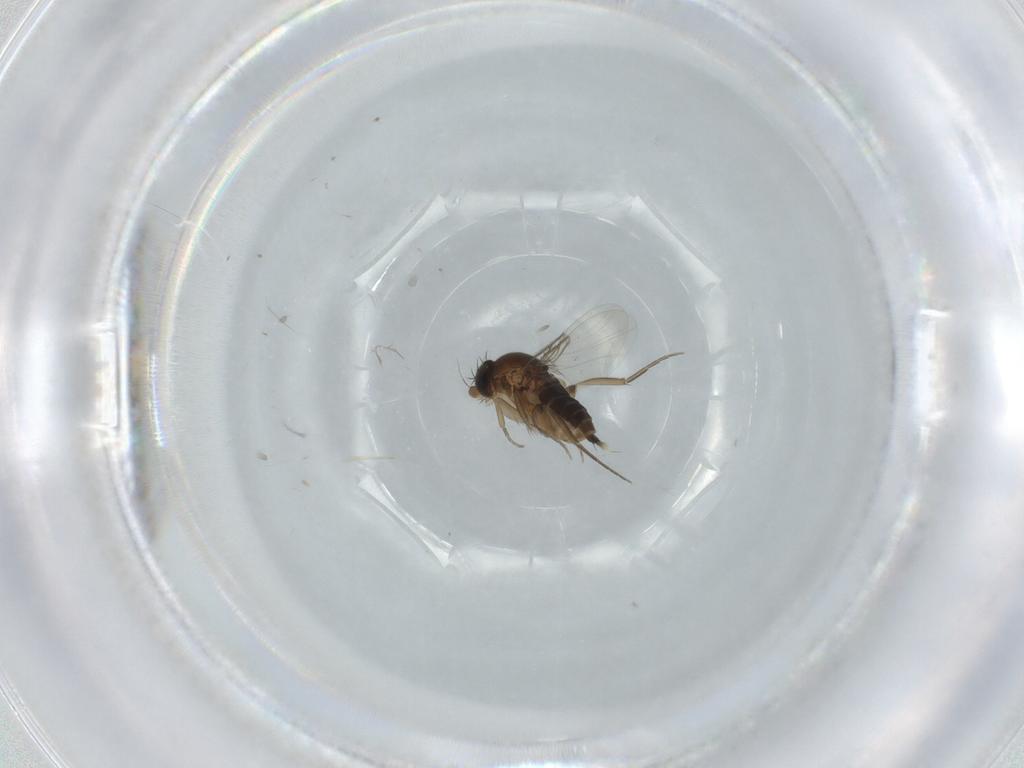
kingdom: Animalia
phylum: Arthropoda
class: Insecta
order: Diptera
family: Phoridae
